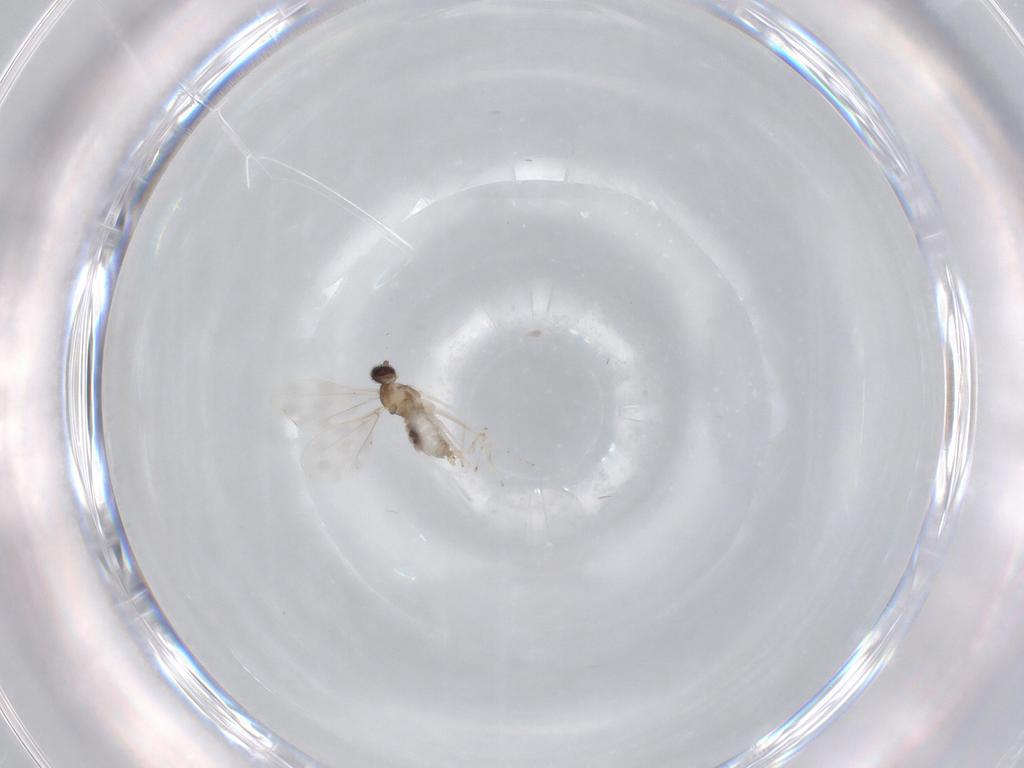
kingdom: Animalia
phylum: Arthropoda
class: Insecta
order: Diptera
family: Cecidomyiidae
